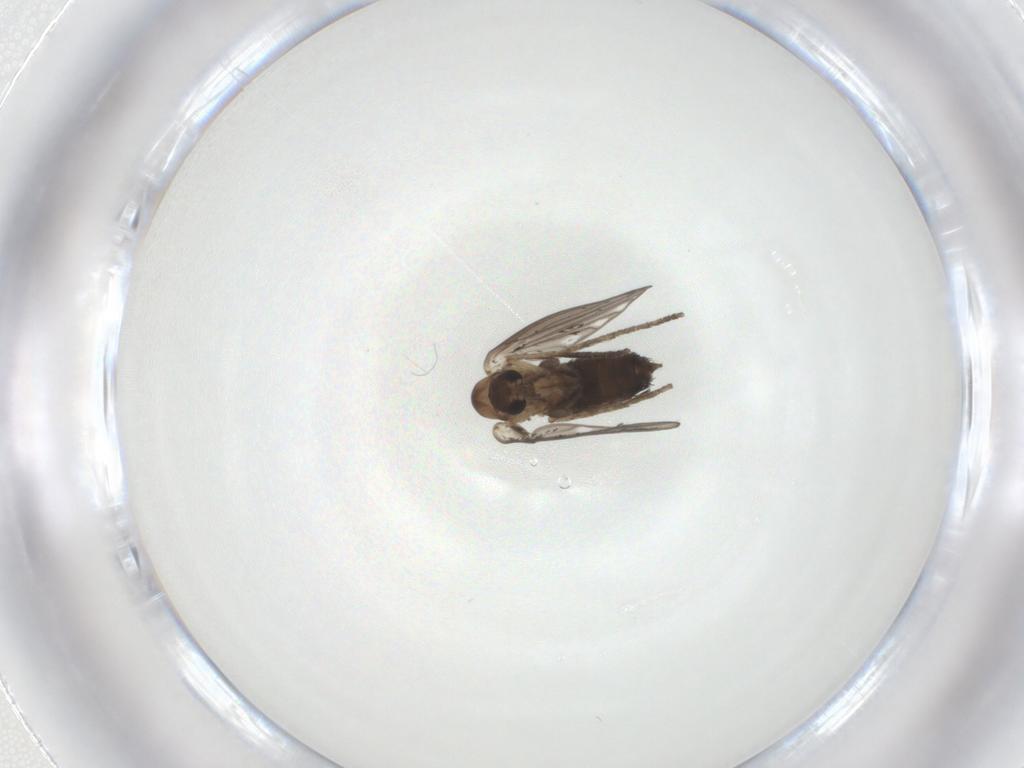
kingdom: Animalia
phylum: Arthropoda
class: Insecta
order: Diptera
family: Psychodidae
